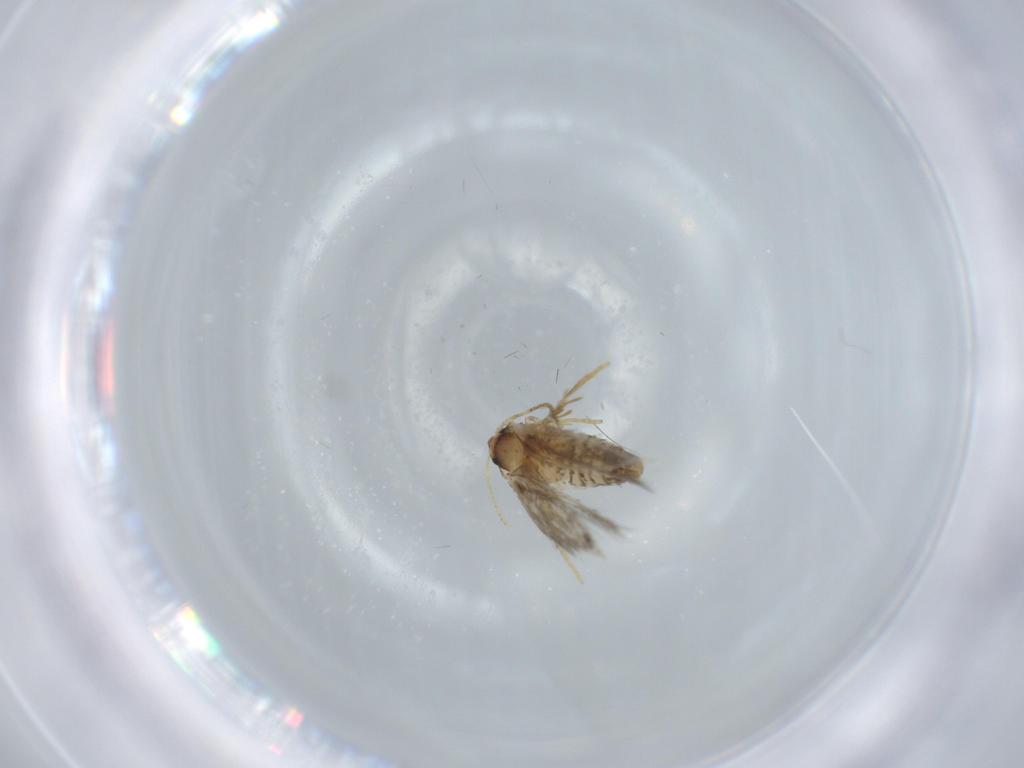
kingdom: Animalia
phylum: Arthropoda
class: Insecta
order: Lepidoptera
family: Nepticulidae
